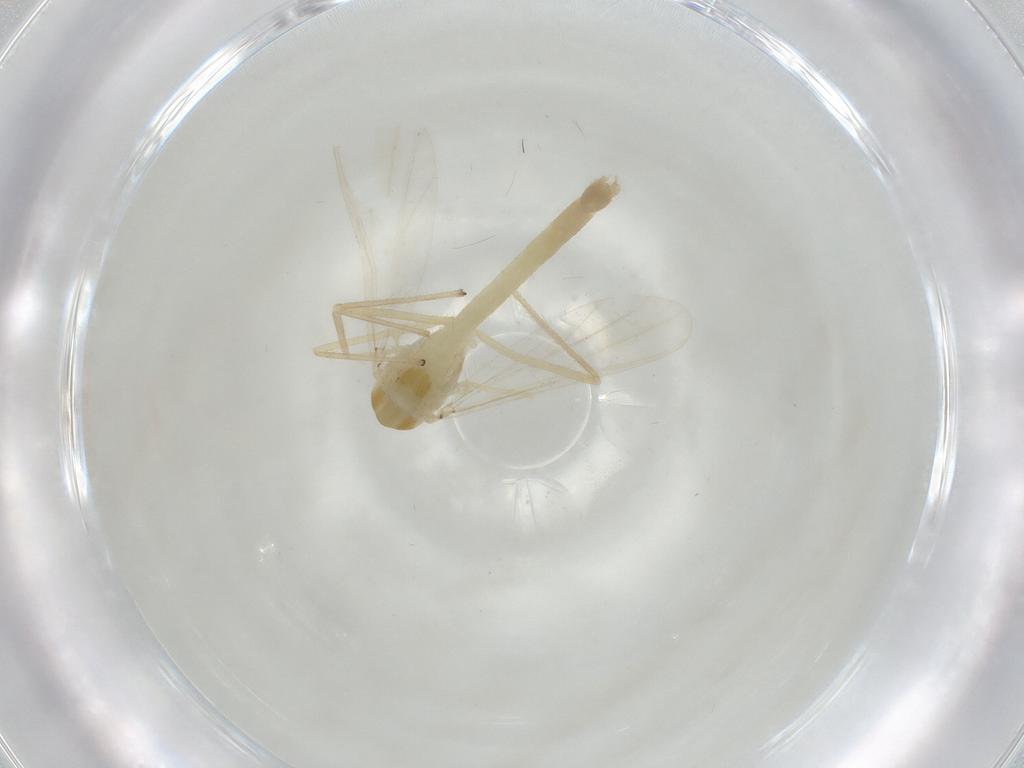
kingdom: Animalia
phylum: Arthropoda
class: Insecta
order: Diptera
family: Chironomidae
